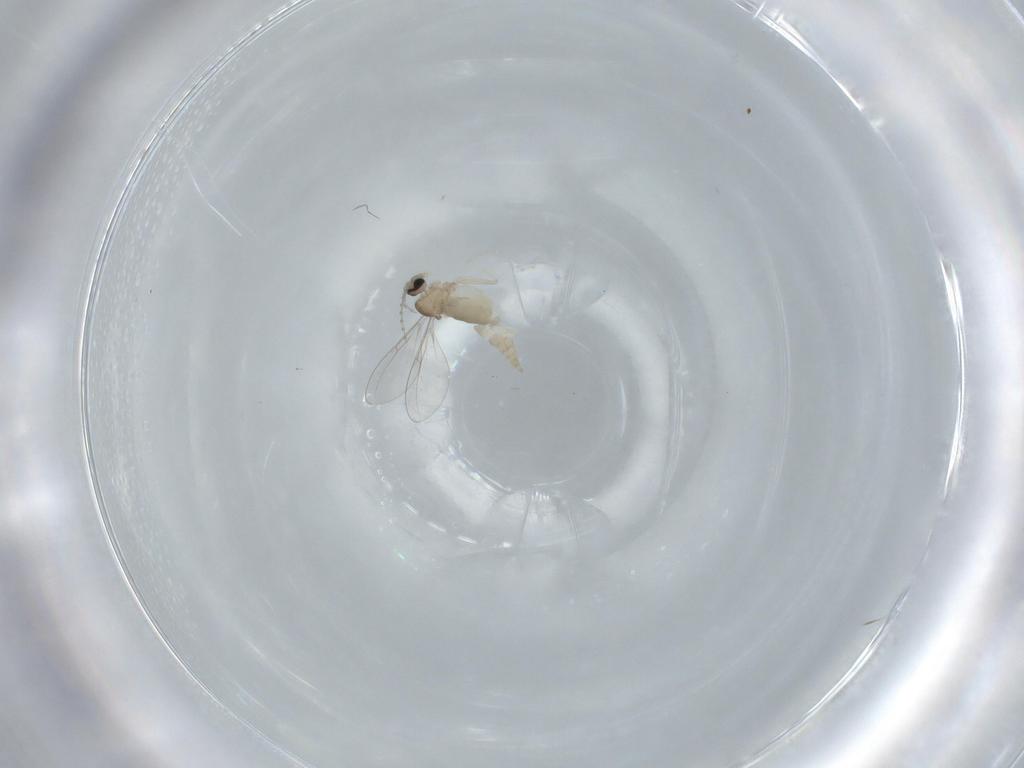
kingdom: Animalia
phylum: Arthropoda
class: Insecta
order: Diptera
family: Cecidomyiidae
